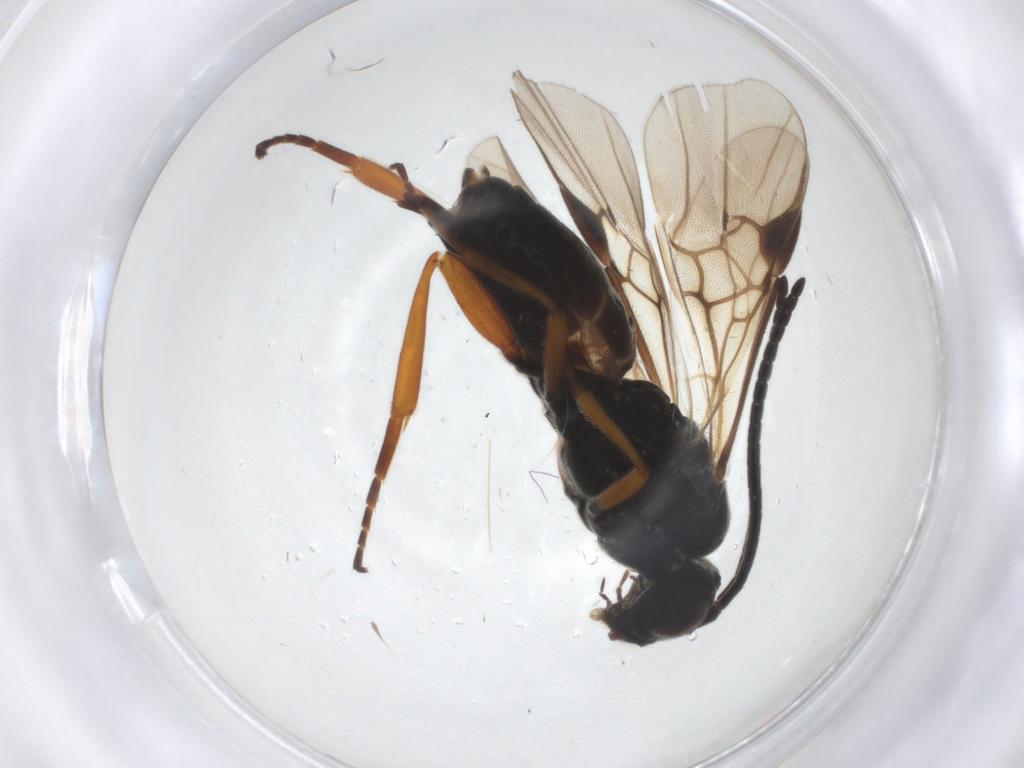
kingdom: Animalia
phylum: Arthropoda
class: Insecta
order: Hymenoptera
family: Braconidae
